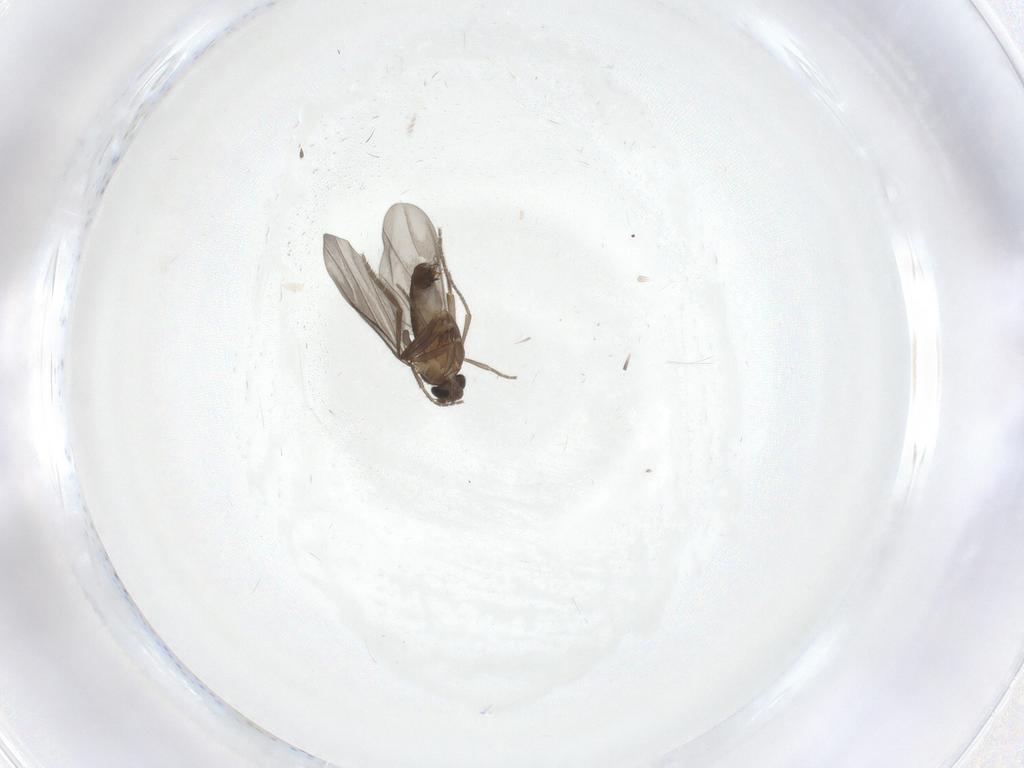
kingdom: Animalia
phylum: Arthropoda
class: Insecta
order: Diptera
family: Phoridae
